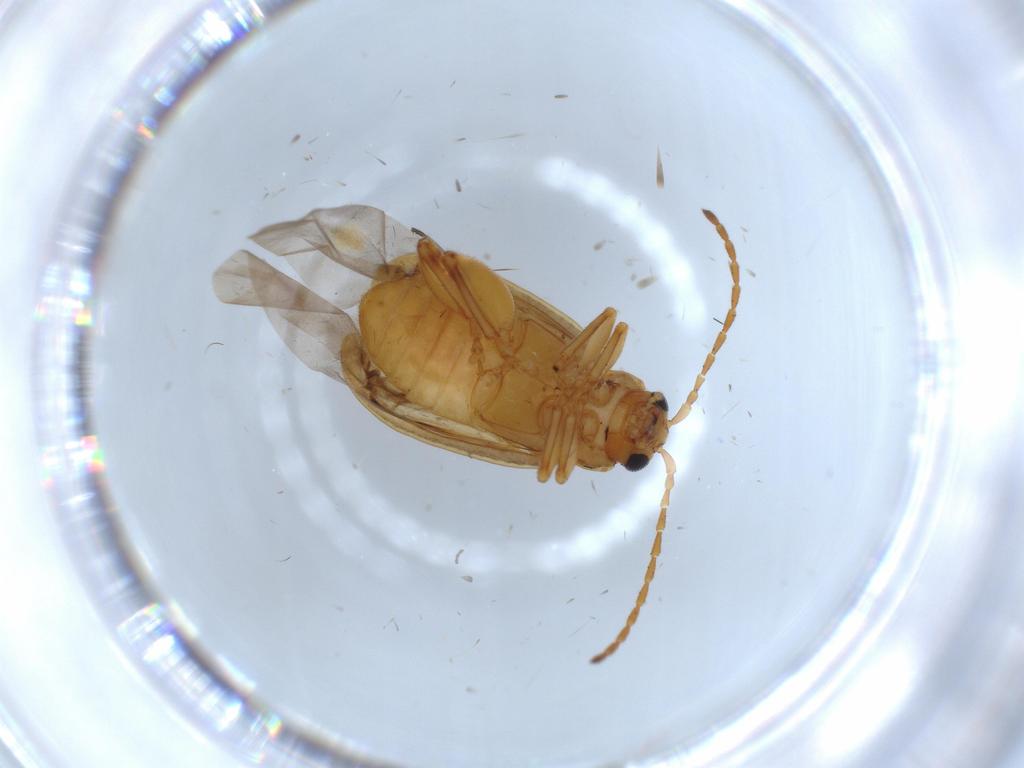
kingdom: Animalia
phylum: Arthropoda
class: Insecta
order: Coleoptera
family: Chrysomelidae
